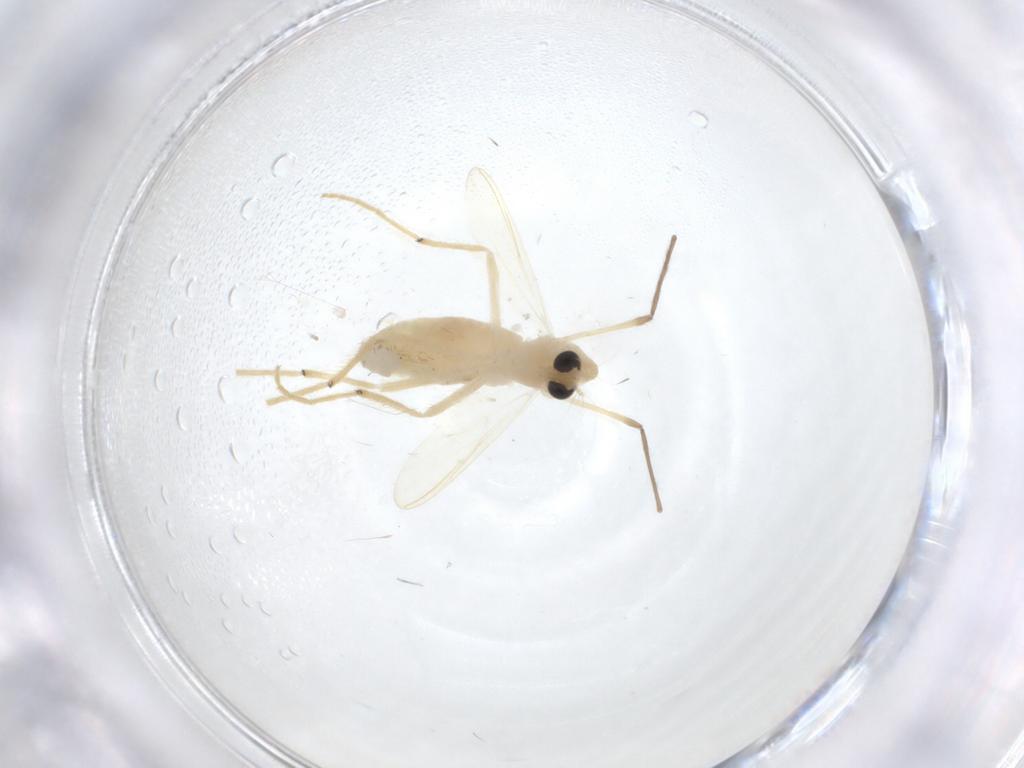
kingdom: Animalia
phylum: Arthropoda
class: Insecta
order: Diptera
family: Chironomidae
